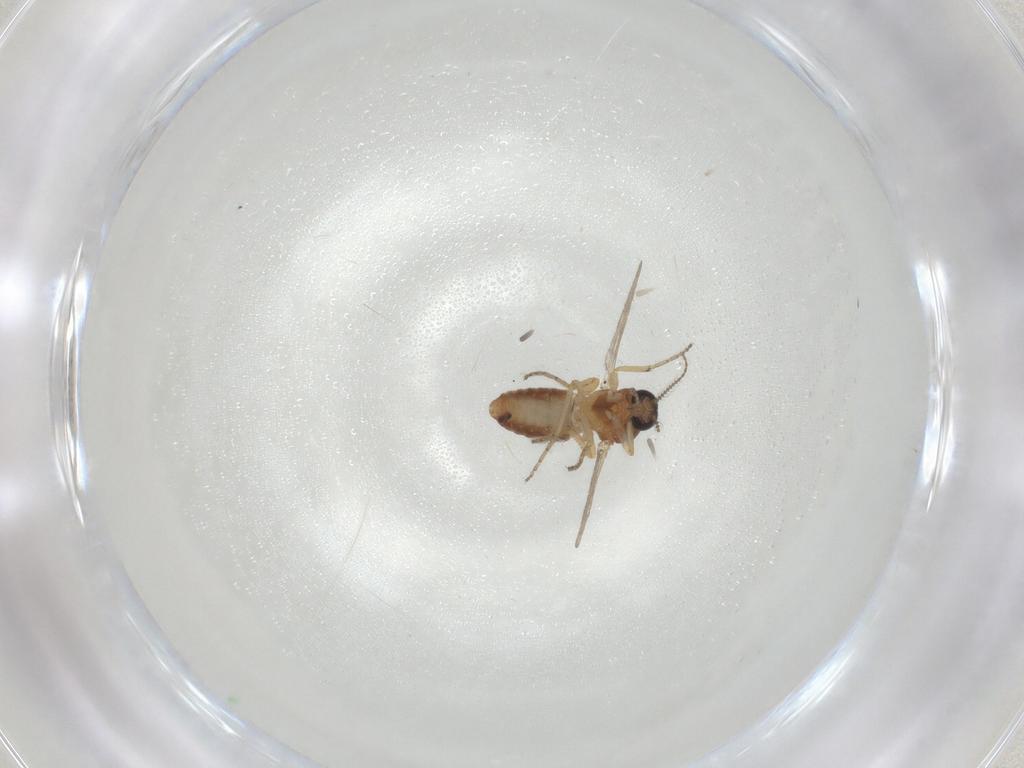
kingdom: Animalia
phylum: Arthropoda
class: Insecta
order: Diptera
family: Ceratopogonidae
